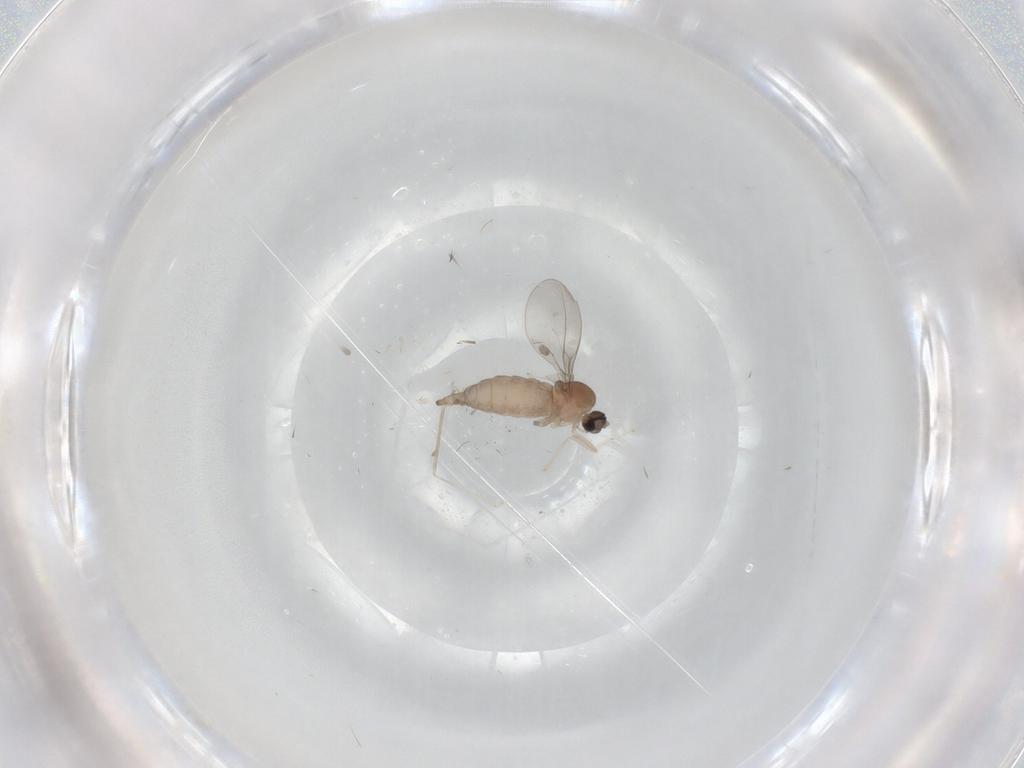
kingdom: Animalia
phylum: Arthropoda
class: Insecta
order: Diptera
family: Cecidomyiidae
